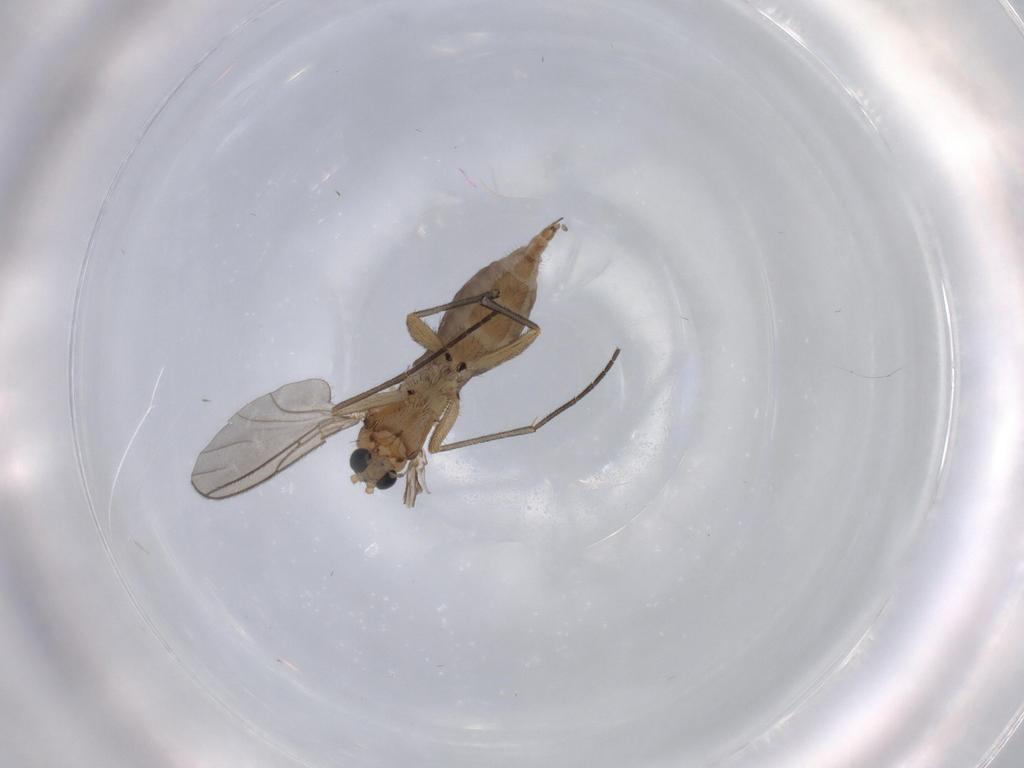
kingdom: Animalia
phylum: Arthropoda
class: Insecta
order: Diptera
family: Sciaridae
